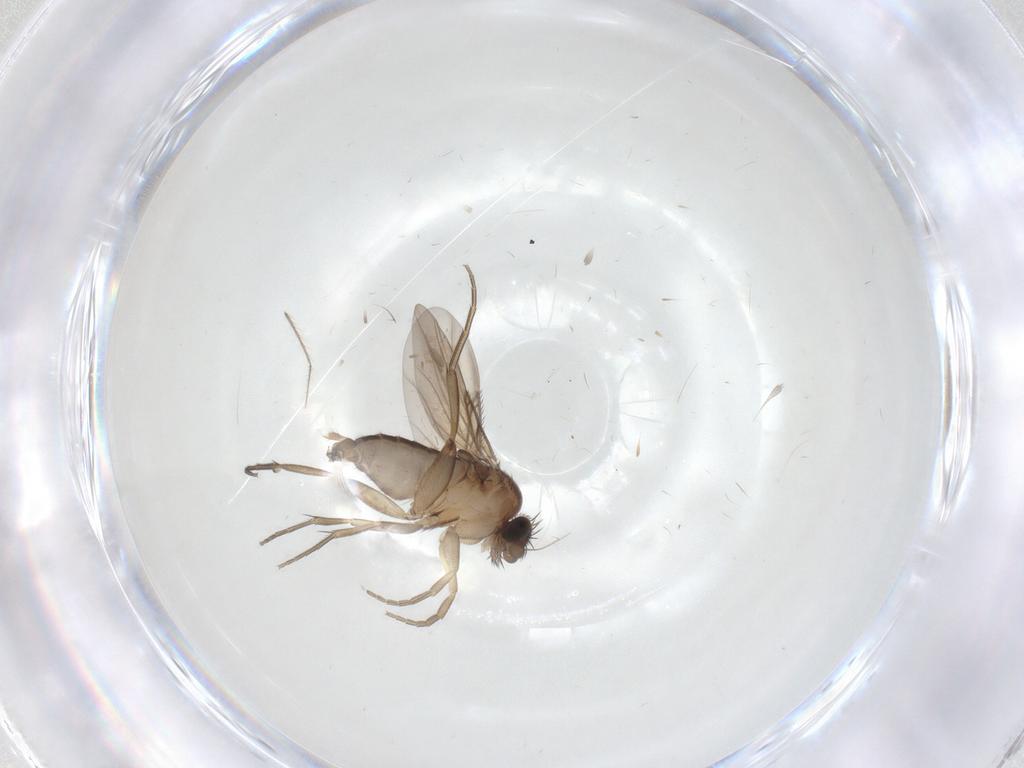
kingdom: Animalia
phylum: Arthropoda
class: Insecta
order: Diptera
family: Phoridae
